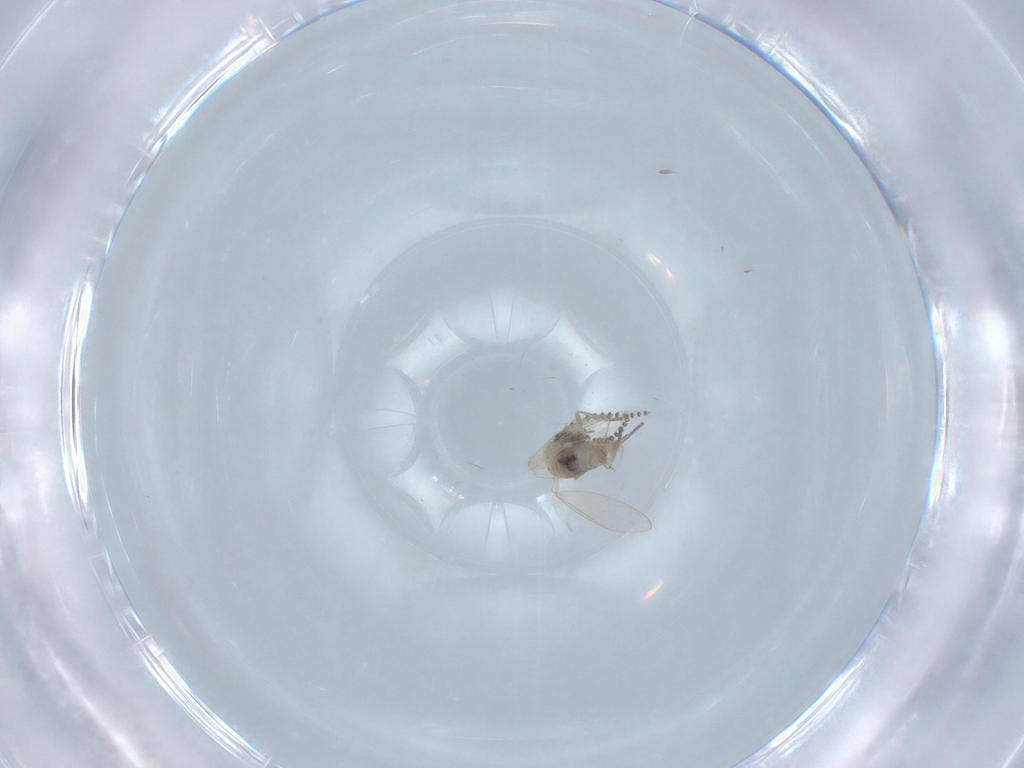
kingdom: Animalia
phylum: Arthropoda
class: Insecta
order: Diptera
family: Psychodidae
